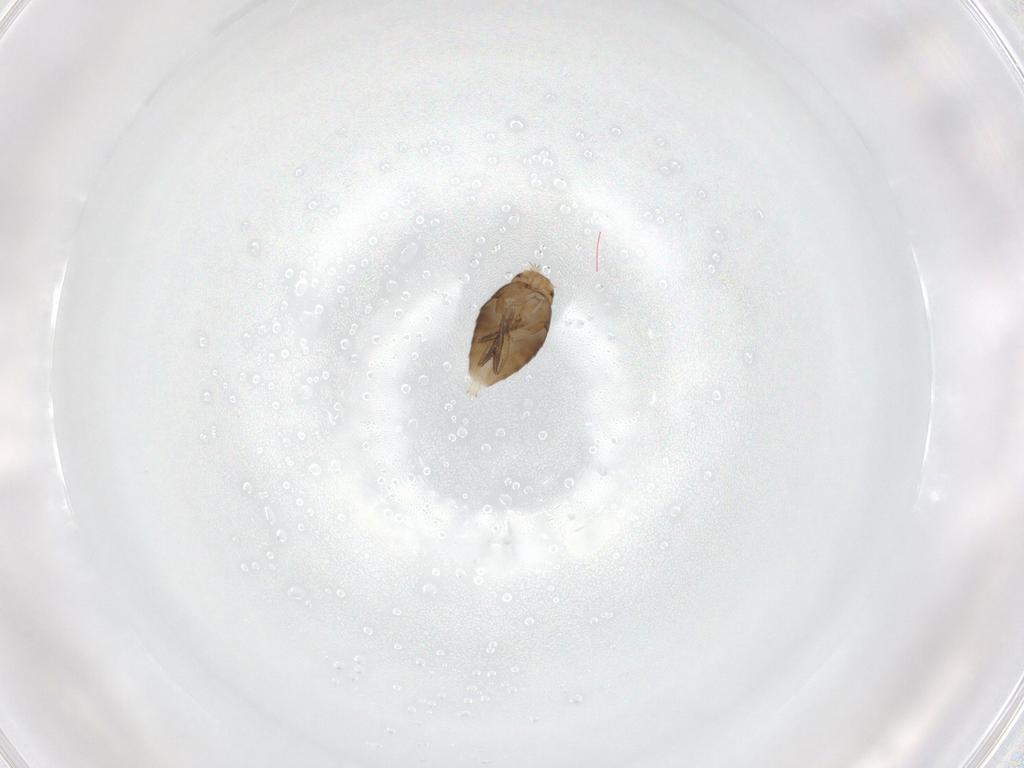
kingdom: Animalia
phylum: Arthropoda
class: Insecta
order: Diptera
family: Phoridae
